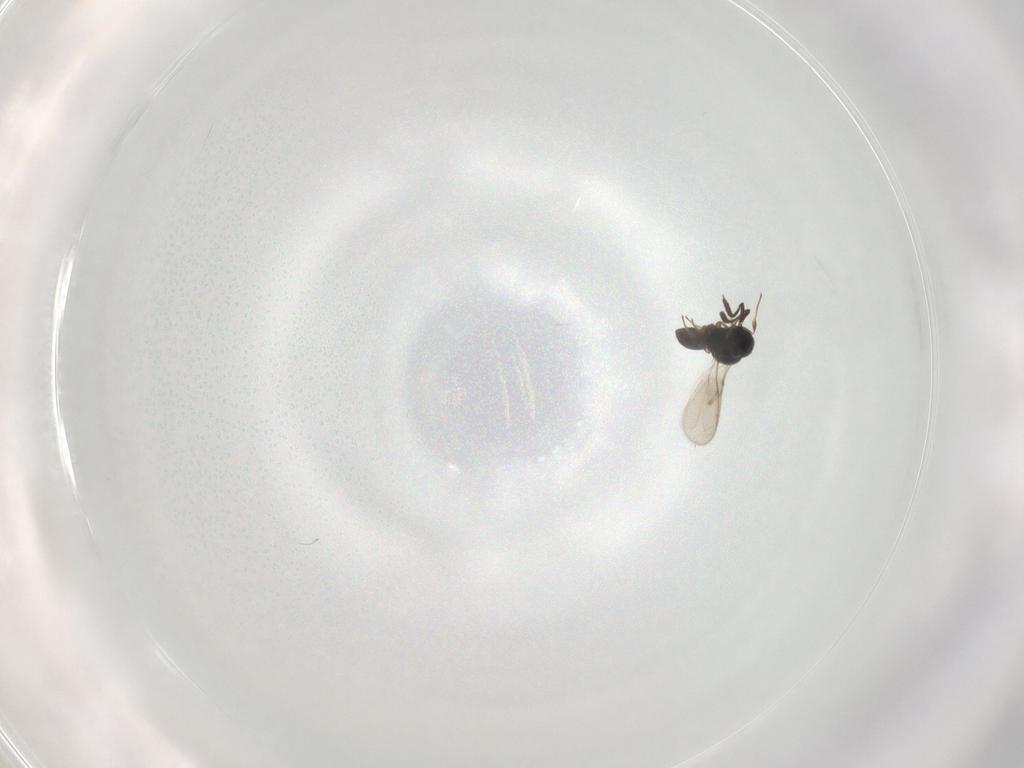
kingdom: Animalia
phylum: Arthropoda
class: Insecta
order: Hymenoptera
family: Scelionidae
